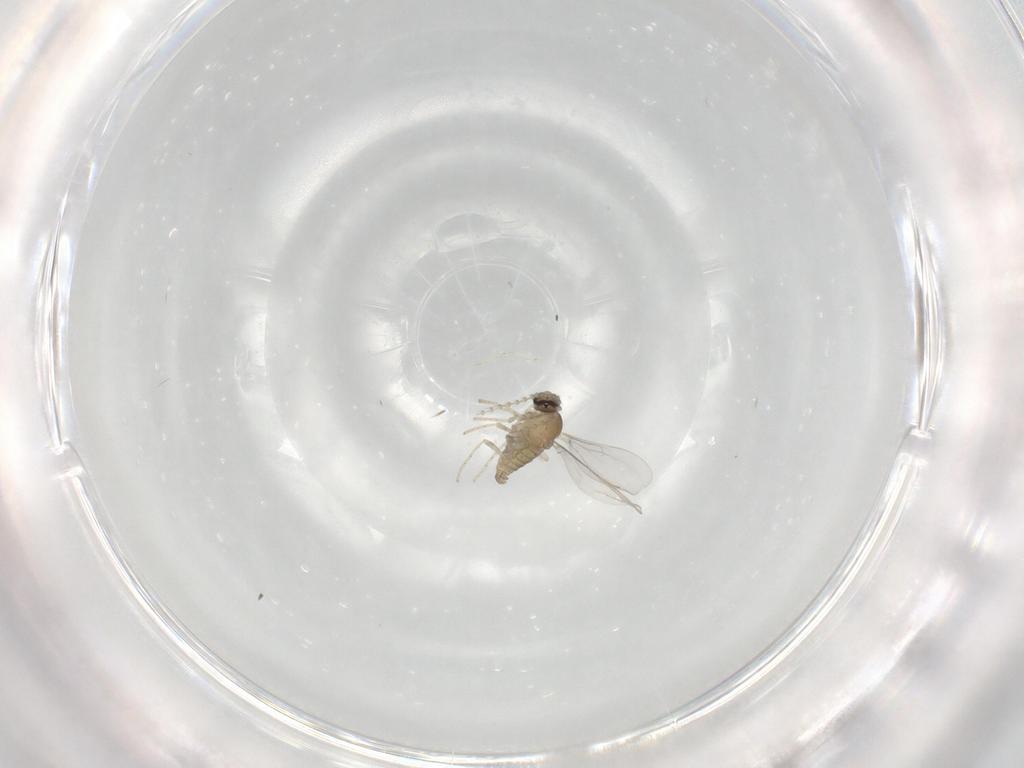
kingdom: Animalia
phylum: Arthropoda
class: Insecta
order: Diptera
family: Cecidomyiidae
